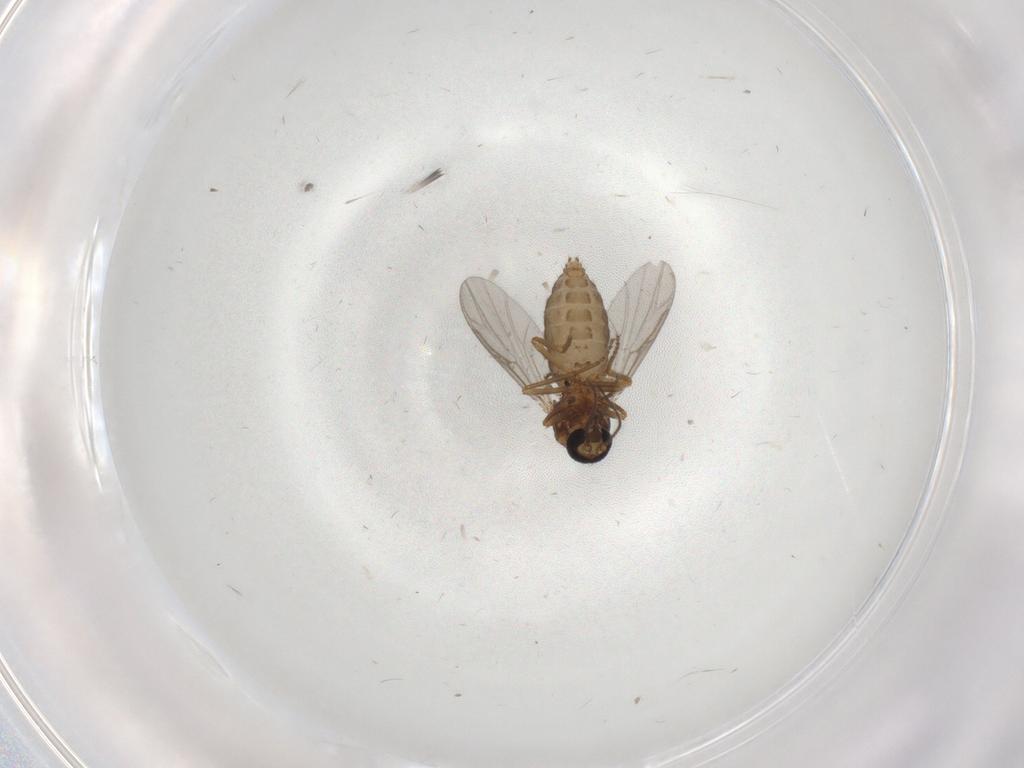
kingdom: Animalia
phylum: Arthropoda
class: Insecta
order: Diptera
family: Ceratopogonidae
